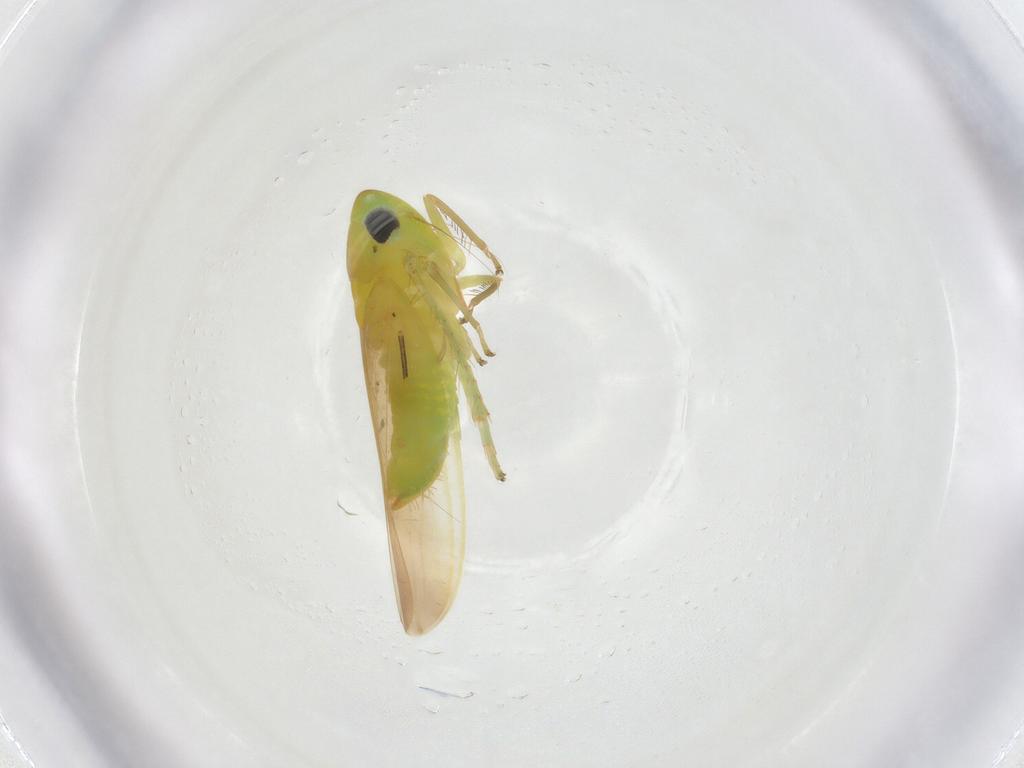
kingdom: Animalia
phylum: Arthropoda
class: Insecta
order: Hemiptera
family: Cicadellidae
